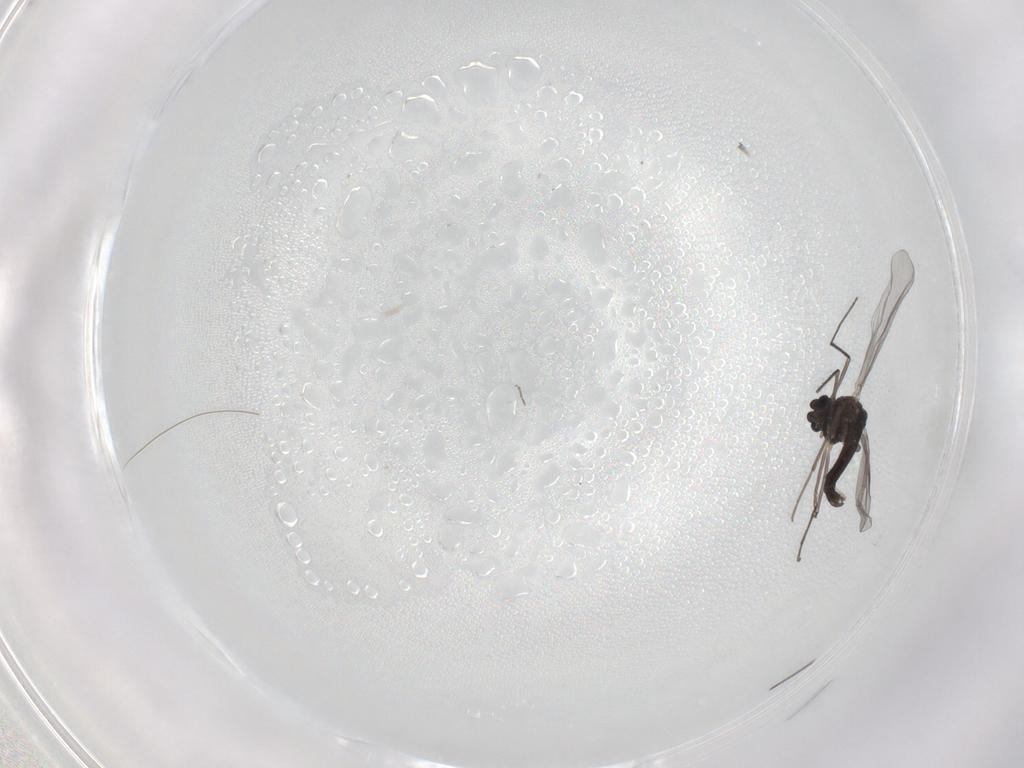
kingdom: Animalia
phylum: Arthropoda
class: Insecta
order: Diptera
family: Chironomidae
